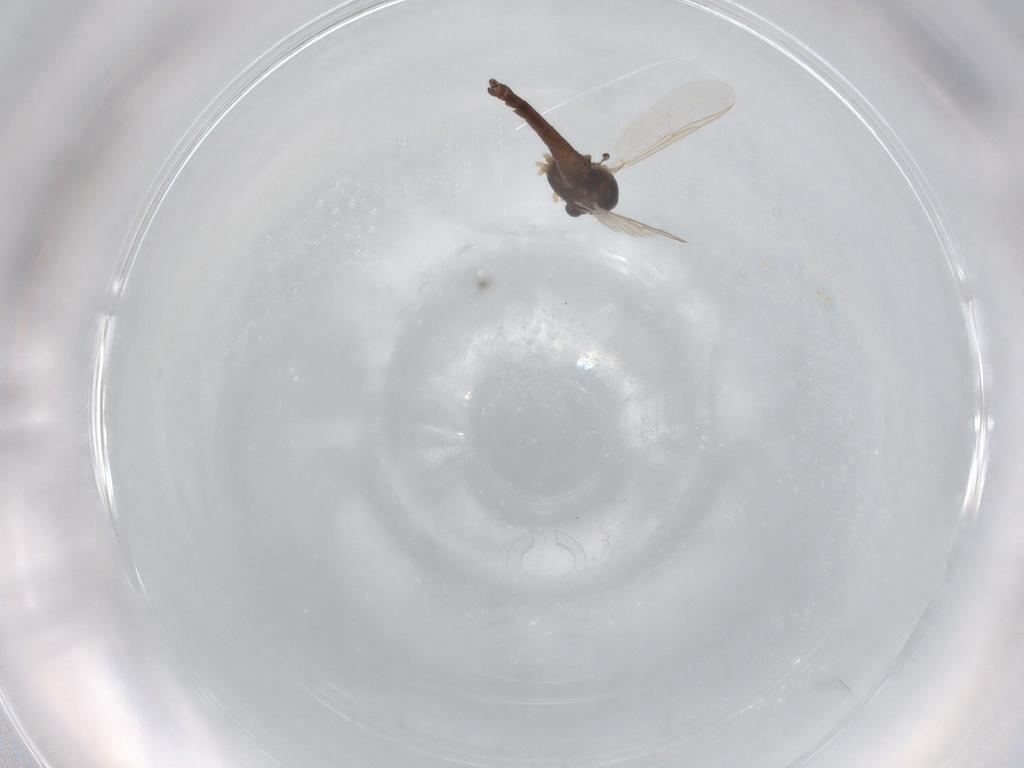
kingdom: Animalia
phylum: Arthropoda
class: Insecta
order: Diptera
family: Chironomidae
